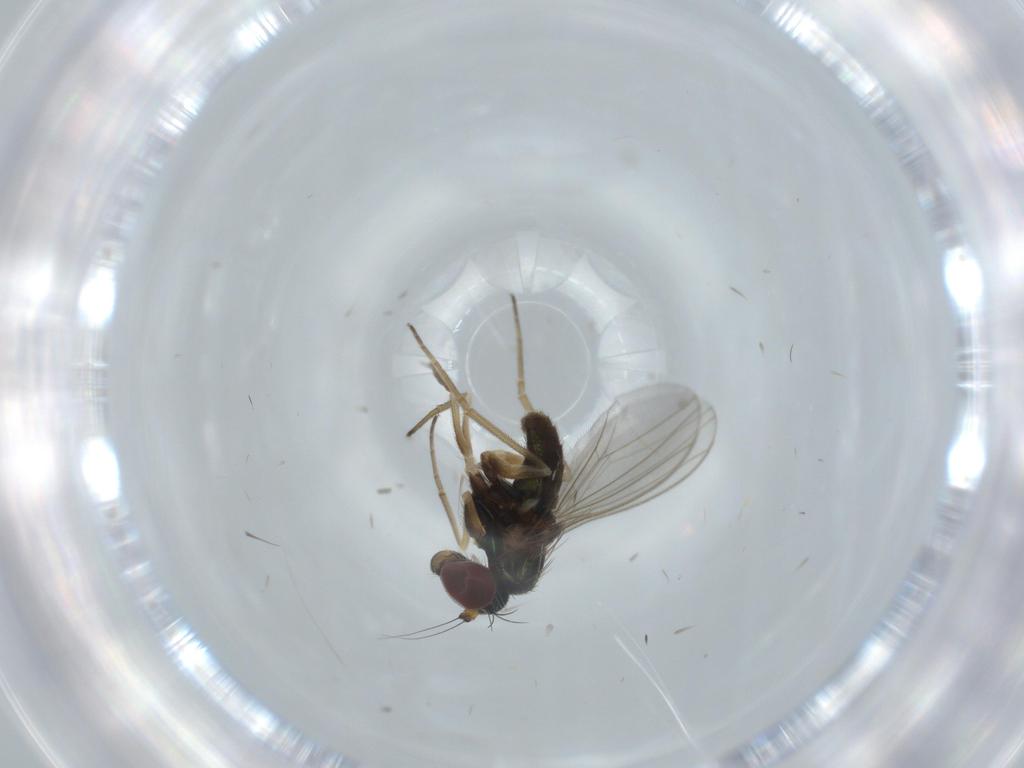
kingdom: Animalia
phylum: Arthropoda
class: Insecta
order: Diptera
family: Dolichopodidae
